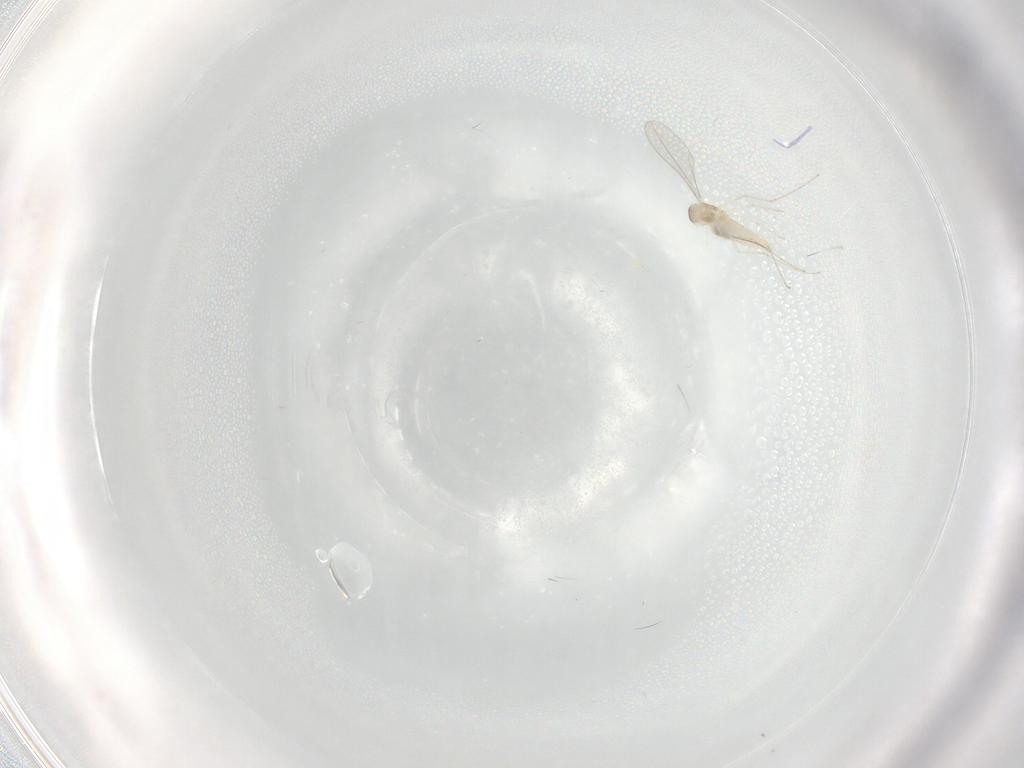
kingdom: Animalia
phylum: Arthropoda
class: Insecta
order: Diptera
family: Cecidomyiidae
